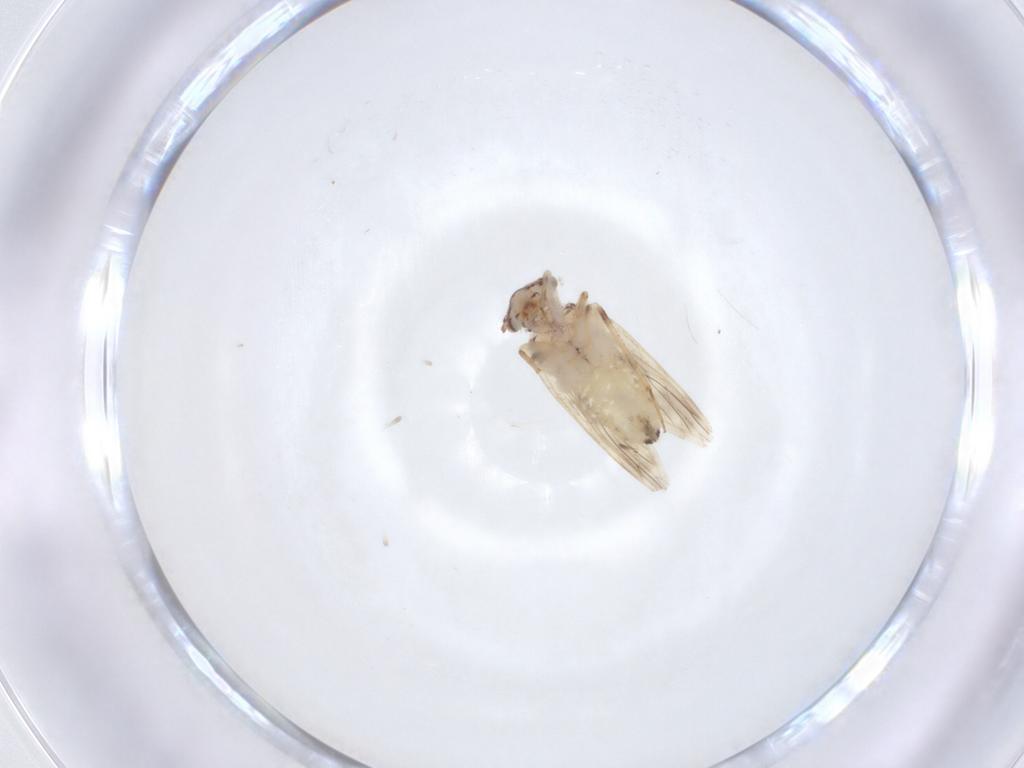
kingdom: Animalia
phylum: Arthropoda
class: Insecta
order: Psocodea
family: Lepidopsocidae
